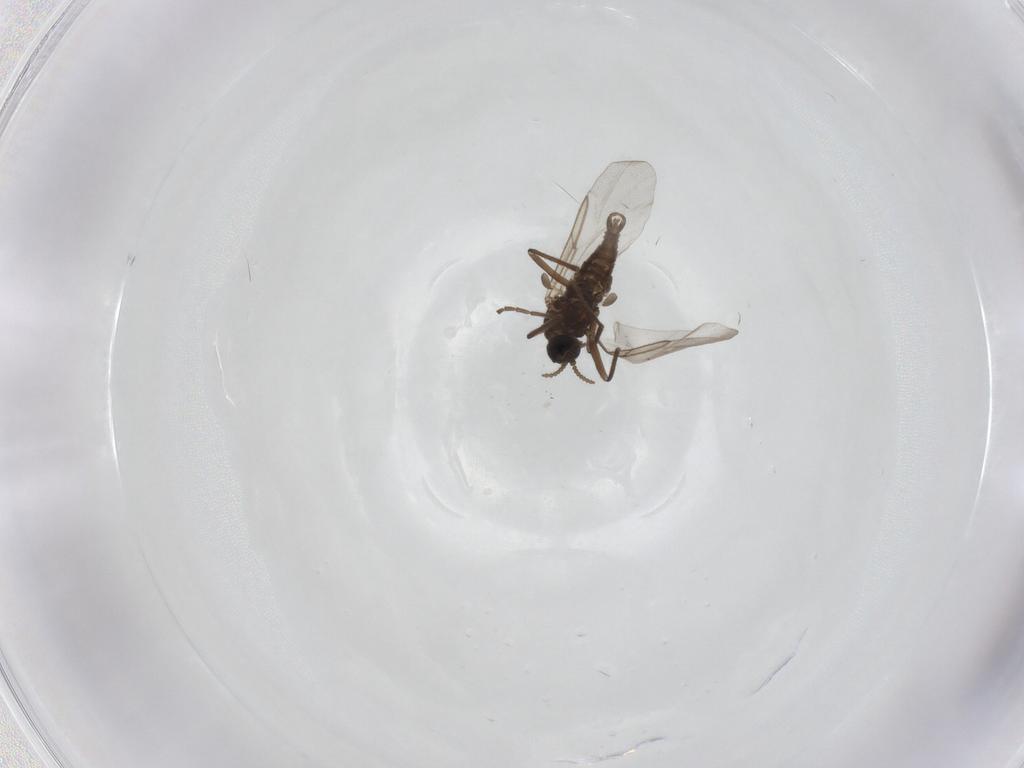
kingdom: Animalia
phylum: Arthropoda
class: Insecta
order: Diptera
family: Cecidomyiidae
